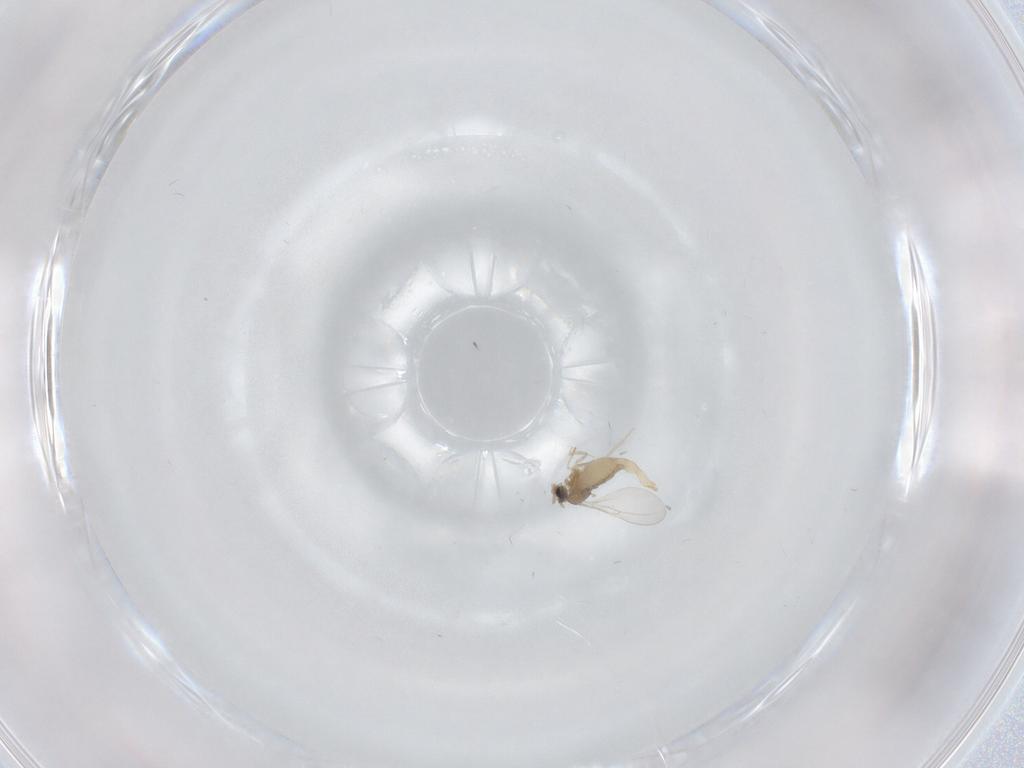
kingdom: Animalia
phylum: Arthropoda
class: Insecta
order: Diptera
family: Cecidomyiidae
